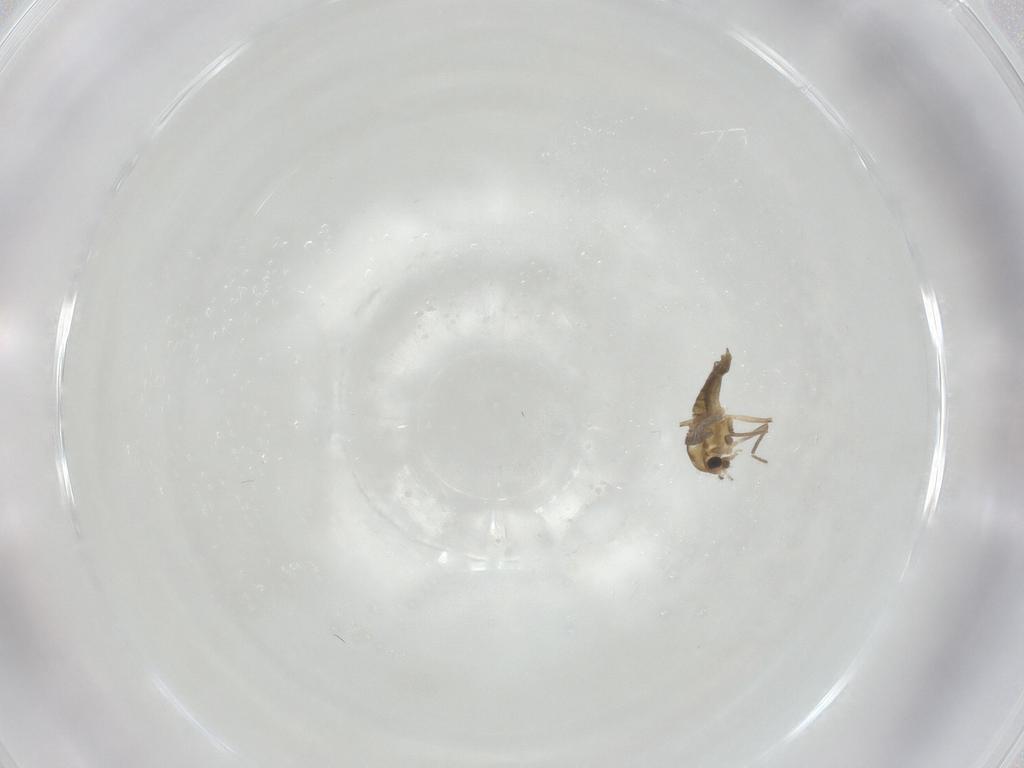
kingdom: Animalia
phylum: Arthropoda
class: Insecta
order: Diptera
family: Chironomidae
